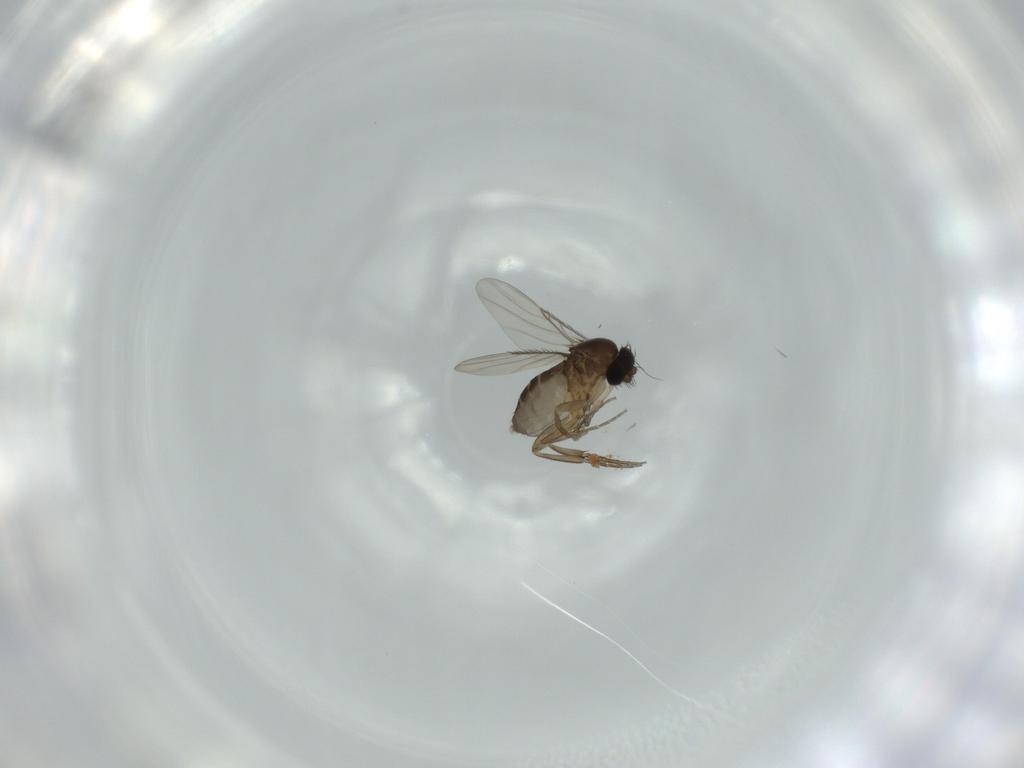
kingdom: Animalia
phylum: Arthropoda
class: Insecta
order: Diptera
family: Phoridae
